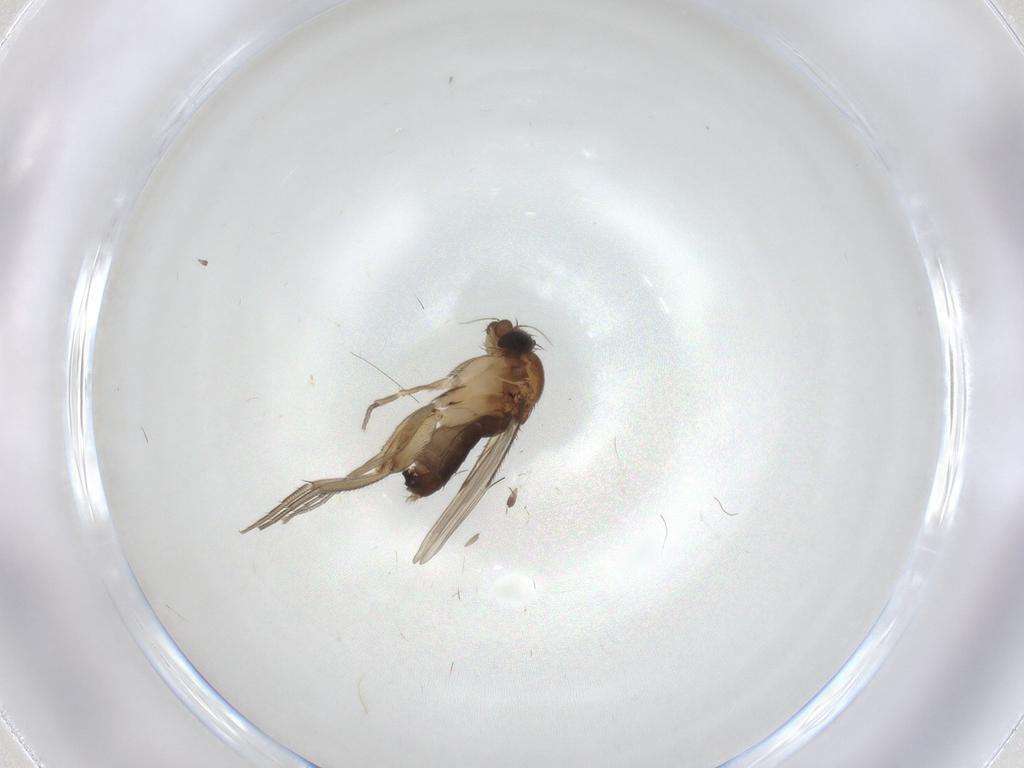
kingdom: Animalia
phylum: Arthropoda
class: Insecta
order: Diptera
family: Phoridae
